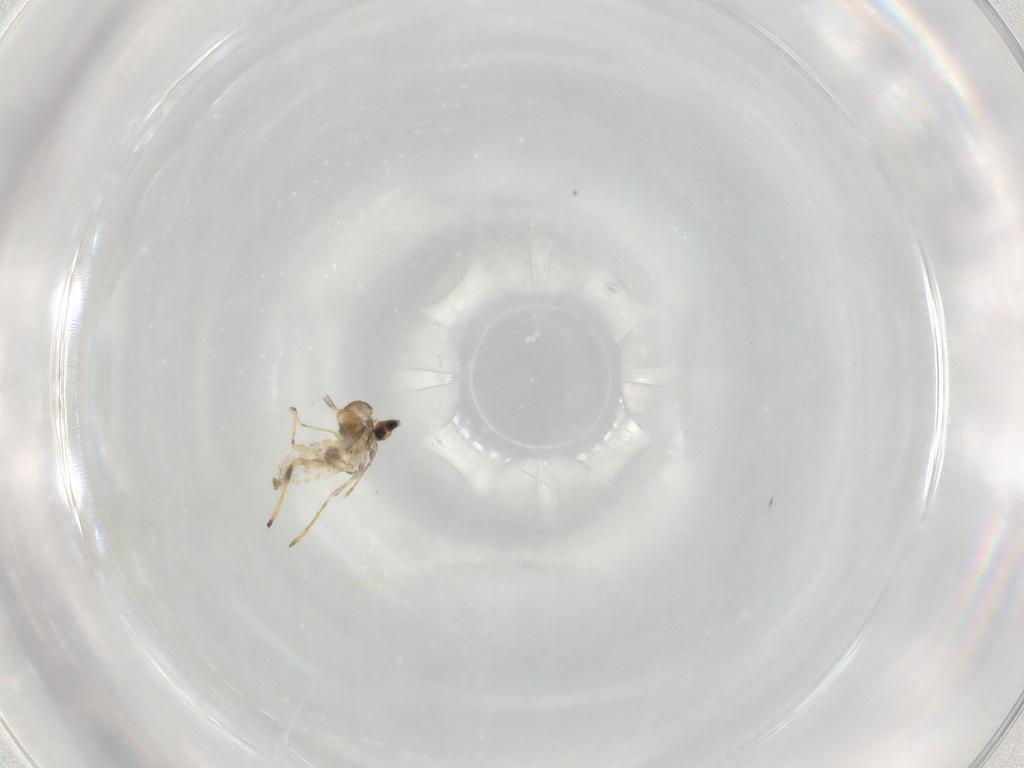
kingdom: Animalia
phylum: Arthropoda
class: Insecta
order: Diptera
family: Cecidomyiidae
